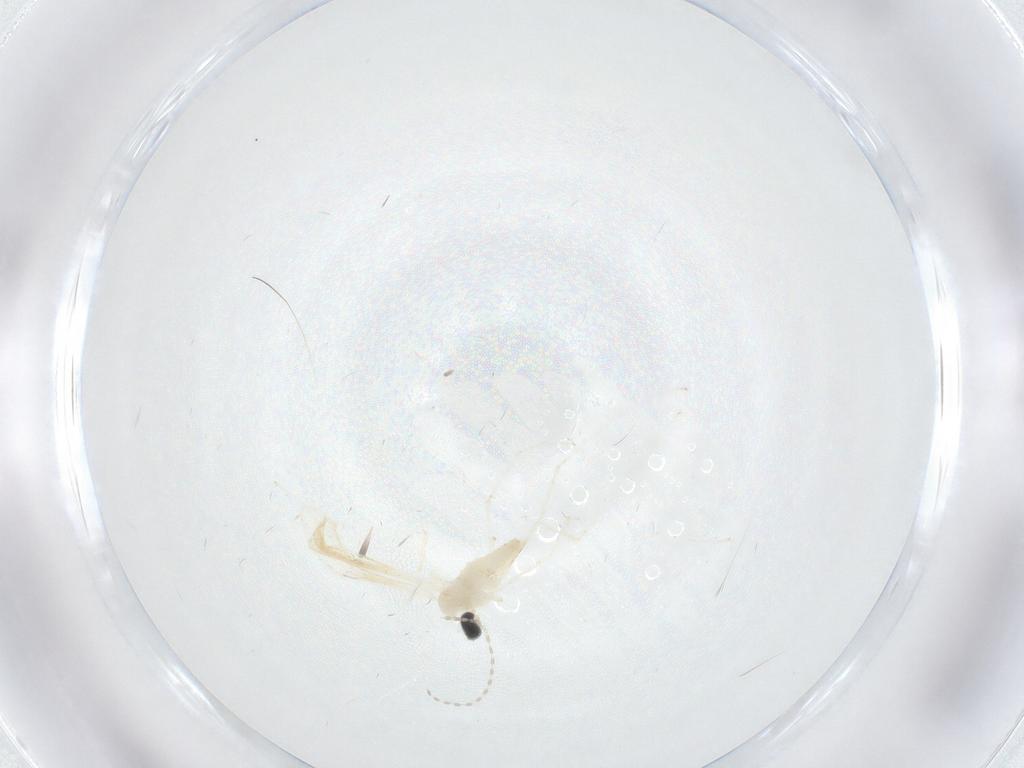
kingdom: Animalia
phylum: Arthropoda
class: Insecta
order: Diptera
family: Cecidomyiidae
